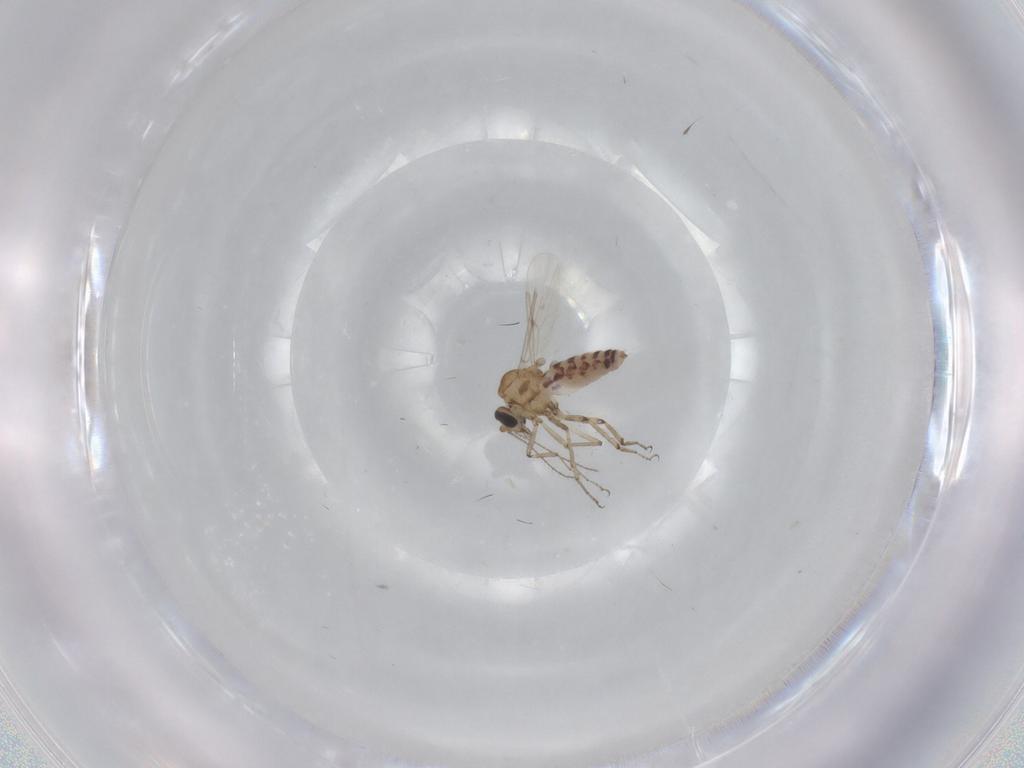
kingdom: Animalia
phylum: Arthropoda
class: Insecta
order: Diptera
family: Ceratopogonidae
